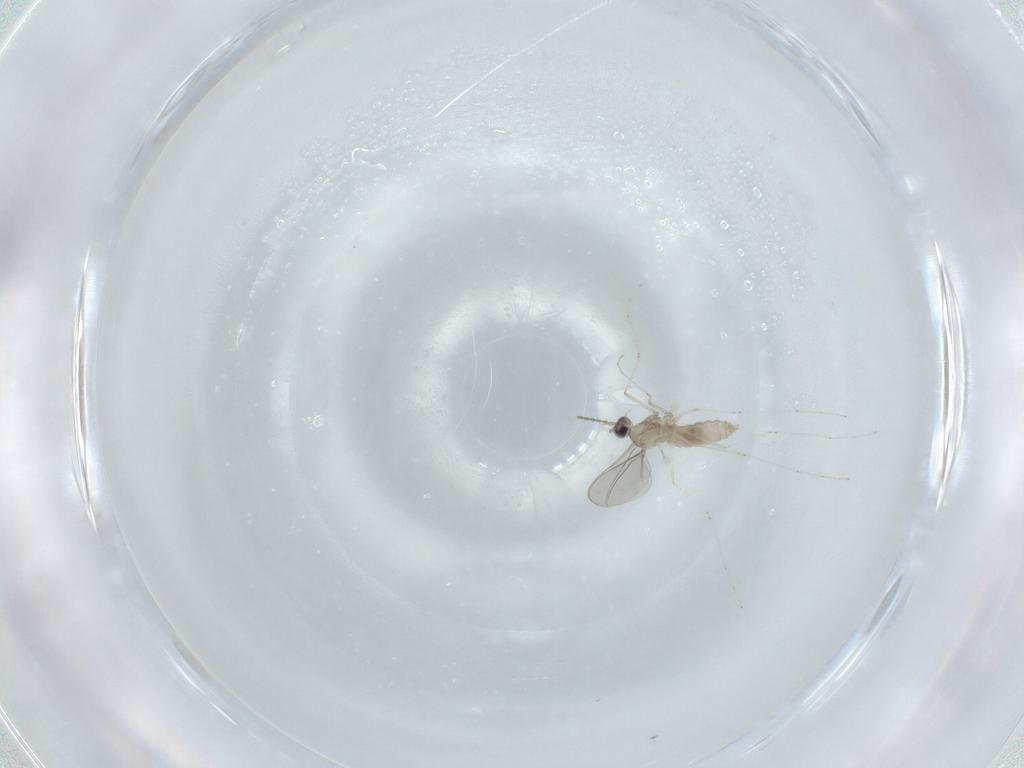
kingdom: Animalia
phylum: Arthropoda
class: Insecta
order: Diptera
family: Cecidomyiidae
